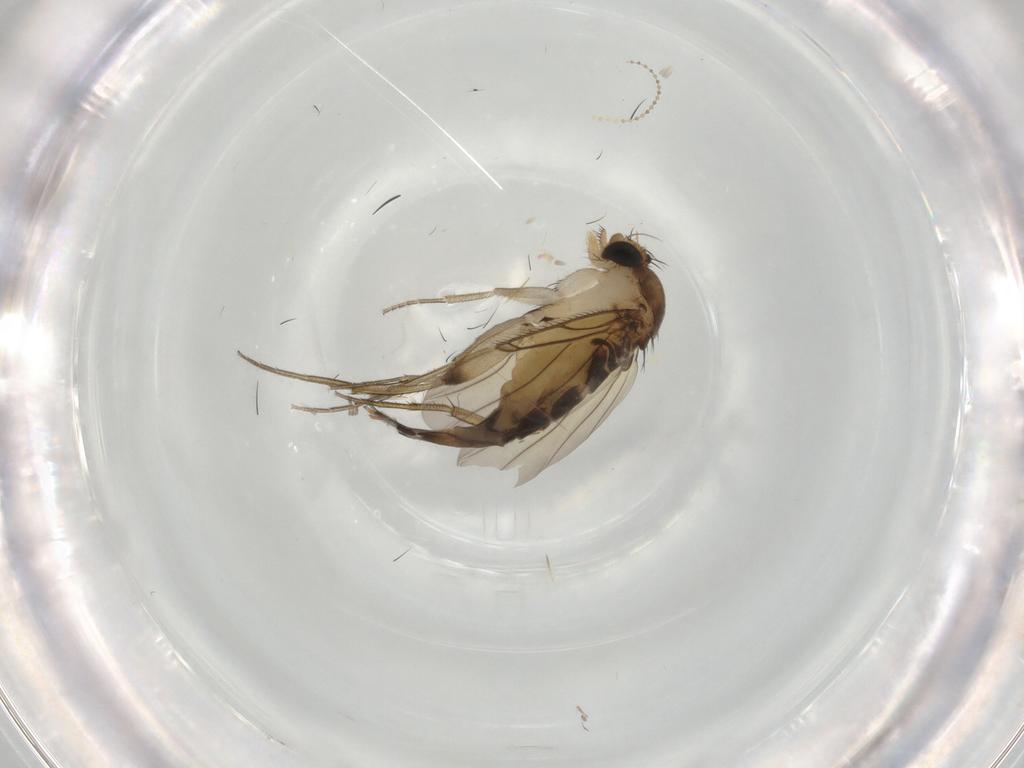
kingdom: Animalia
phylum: Arthropoda
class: Insecta
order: Diptera
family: Phoridae
